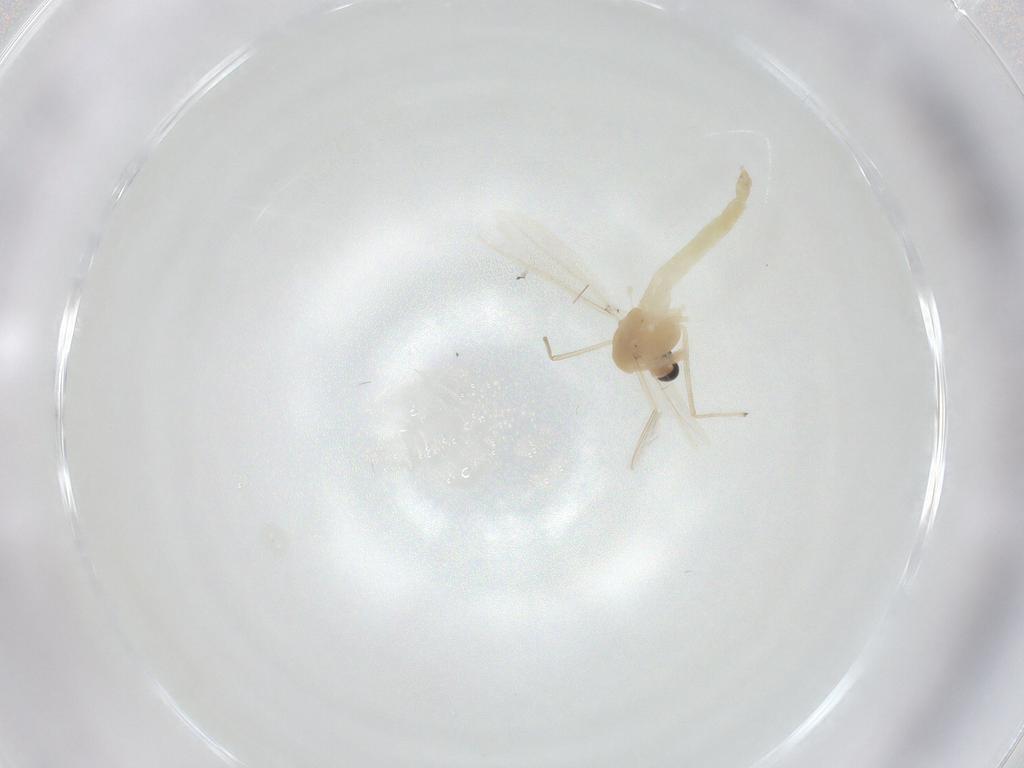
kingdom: Animalia
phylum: Arthropoda
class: Insecta
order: Diptera
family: Chironomidae
